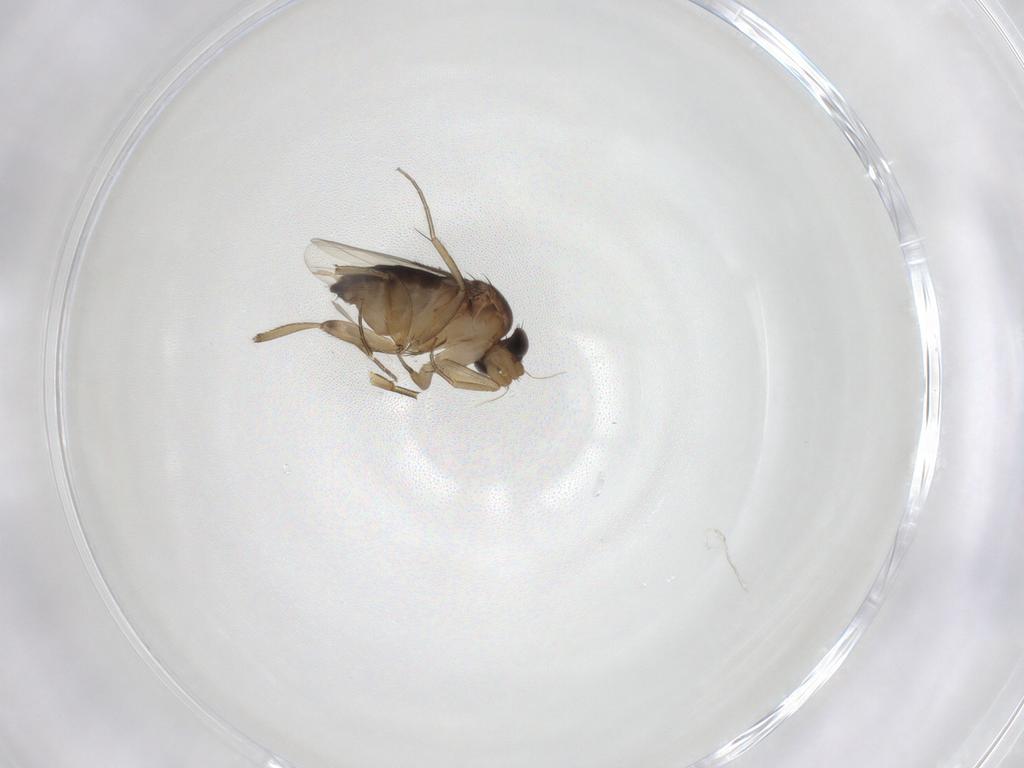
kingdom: Animalia
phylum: Arthropoda
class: Insecta
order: Diptera
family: Phoridae
